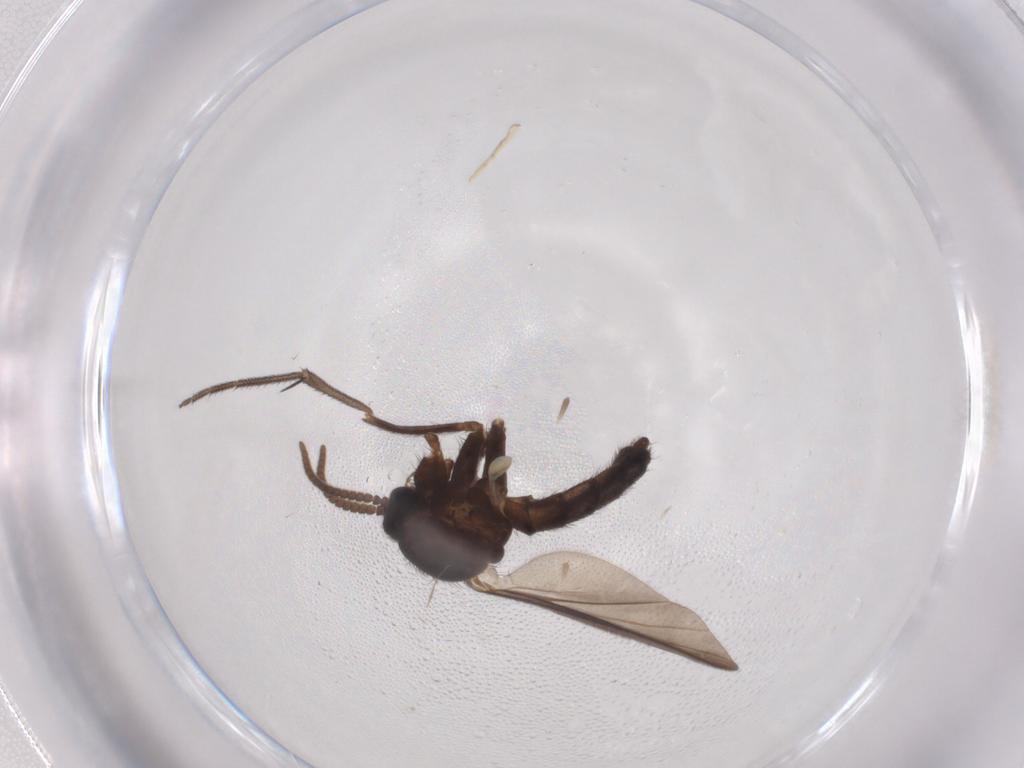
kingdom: Animalia
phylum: Arthropoda
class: Insecta
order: Diptera
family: Keroplatidae
